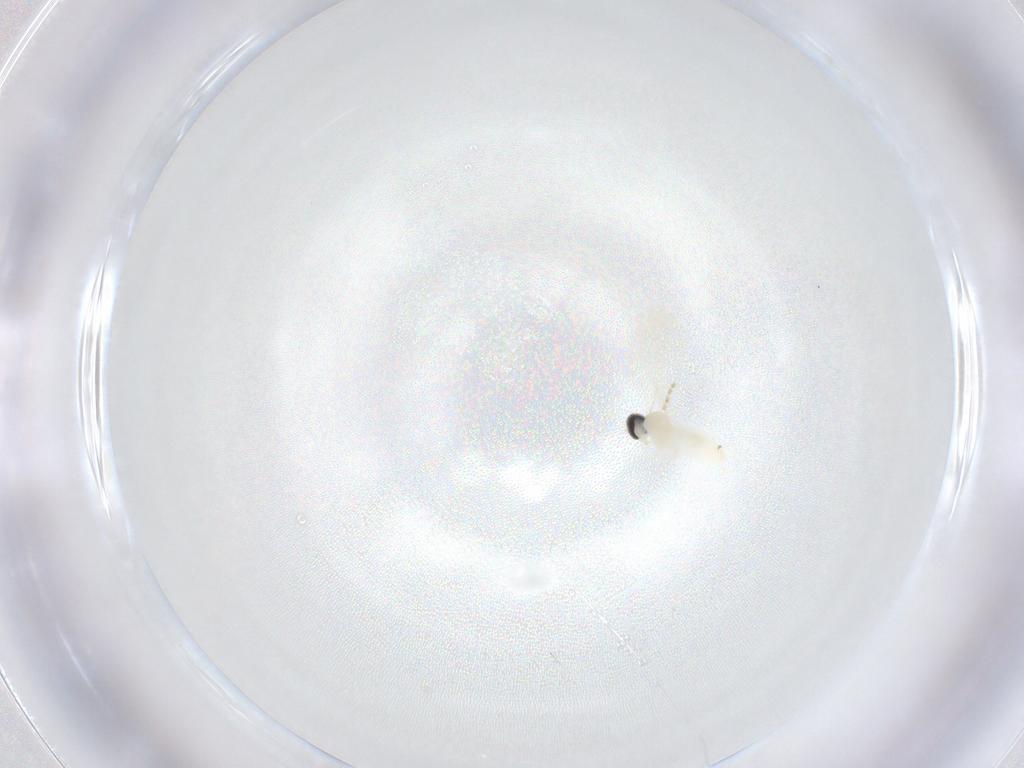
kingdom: Animalia
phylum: Arthropoda
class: Insecta
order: Diptera
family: Cecidomyiidae
